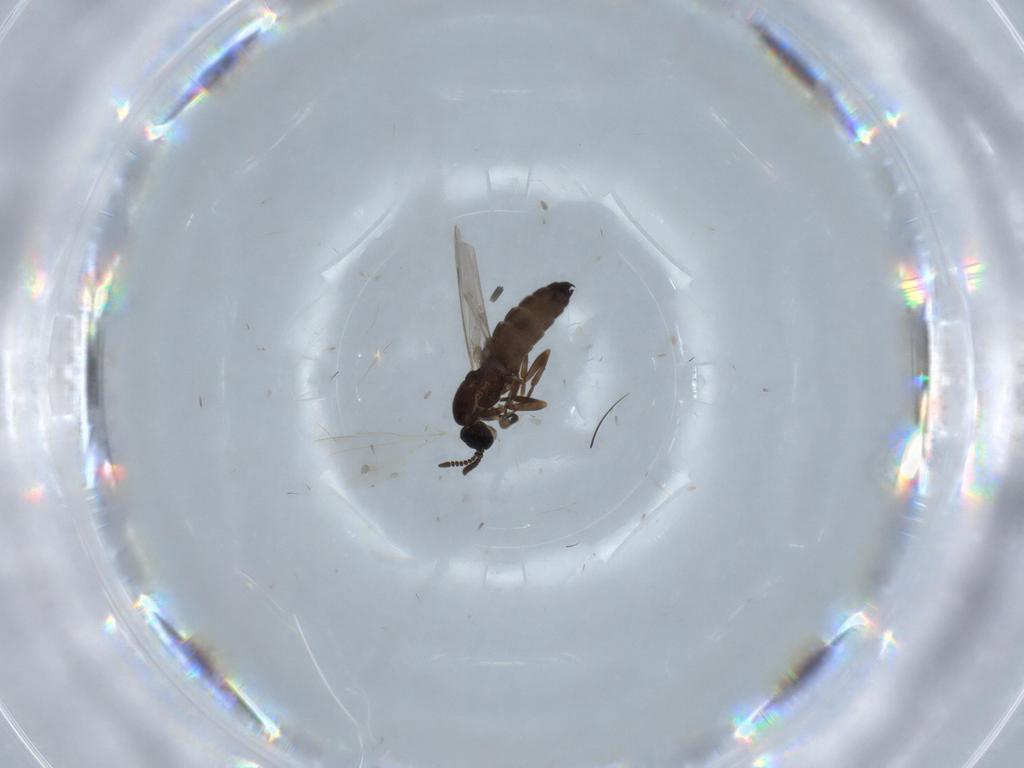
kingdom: Animalia
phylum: Arthropoda
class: Insecta
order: Diptera
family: Scatopsidae
